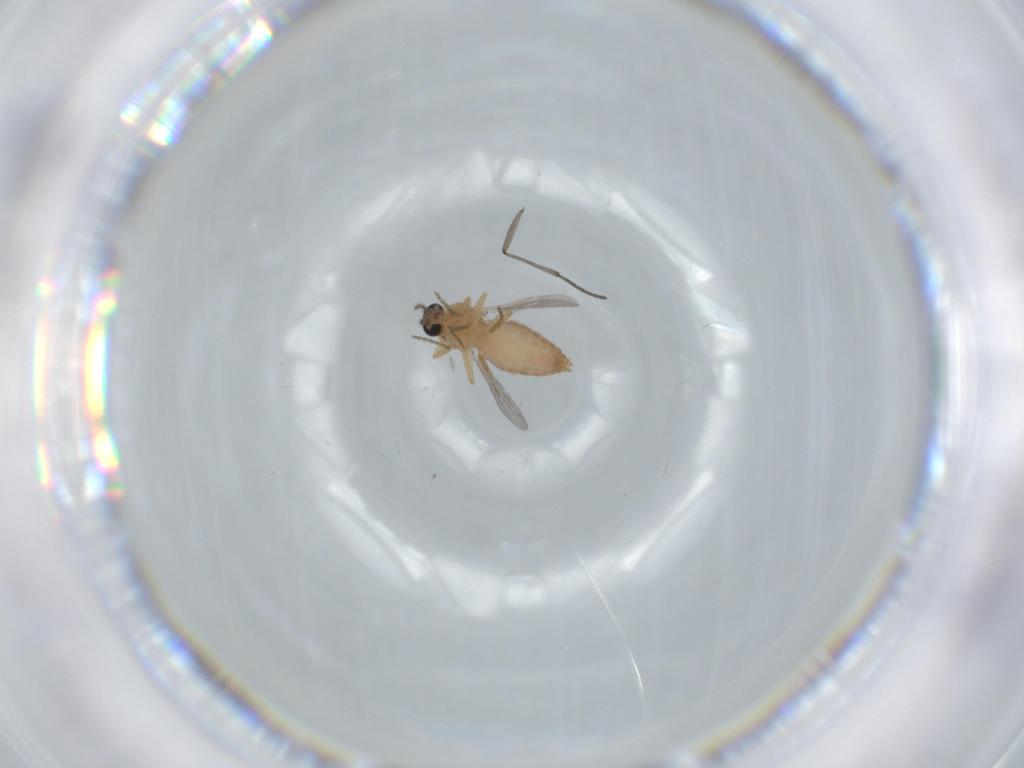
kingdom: Animalia
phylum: Arthropoda
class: Insecta
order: Diptera
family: Ceratopogonidae
